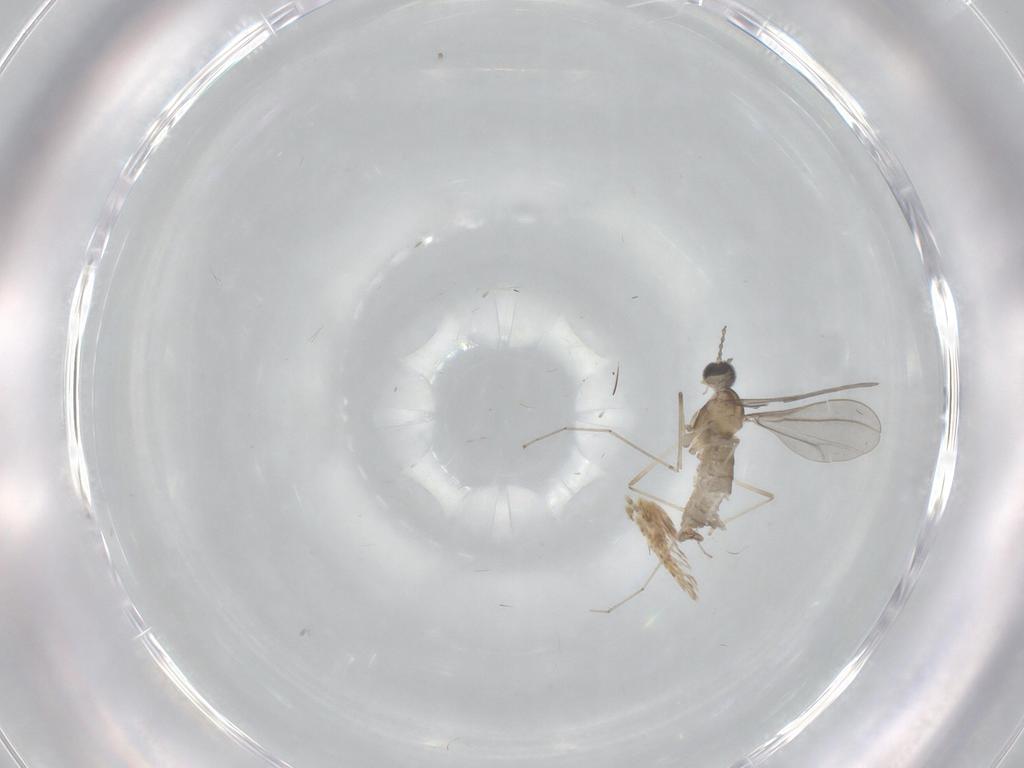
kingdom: Animalia
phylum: Arthropoda
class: Insecta
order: Diptera
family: Cecidomyiidae
